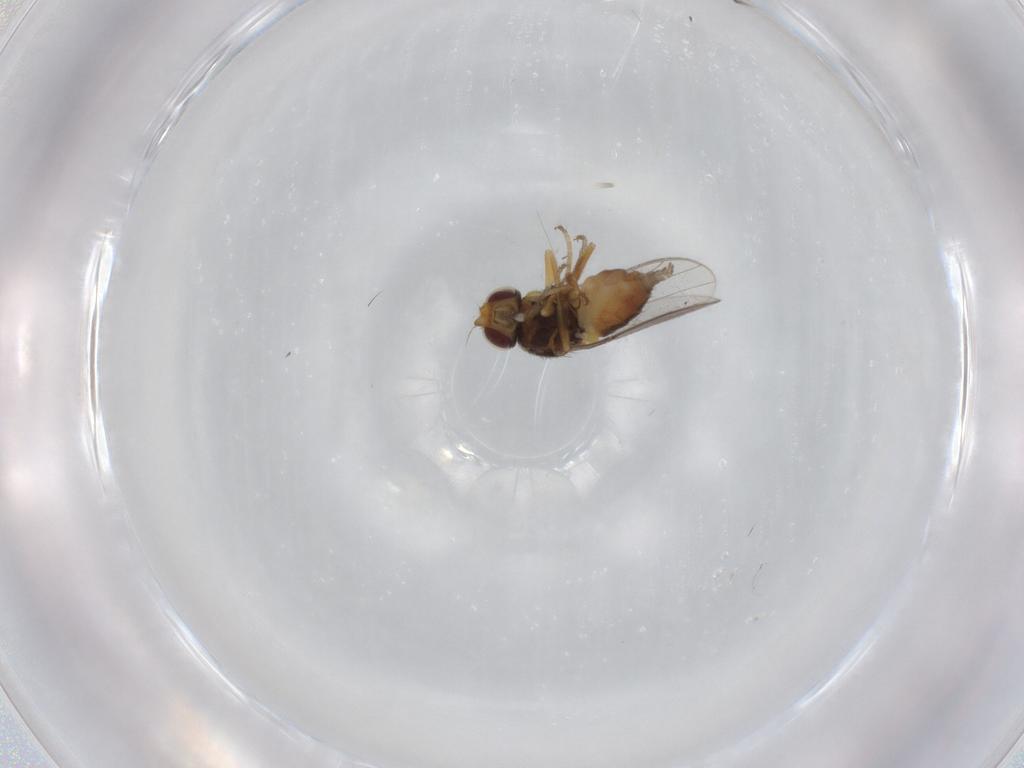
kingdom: Animalia
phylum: Arthropoda
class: Insecta
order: Diptera
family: Chloropidae
